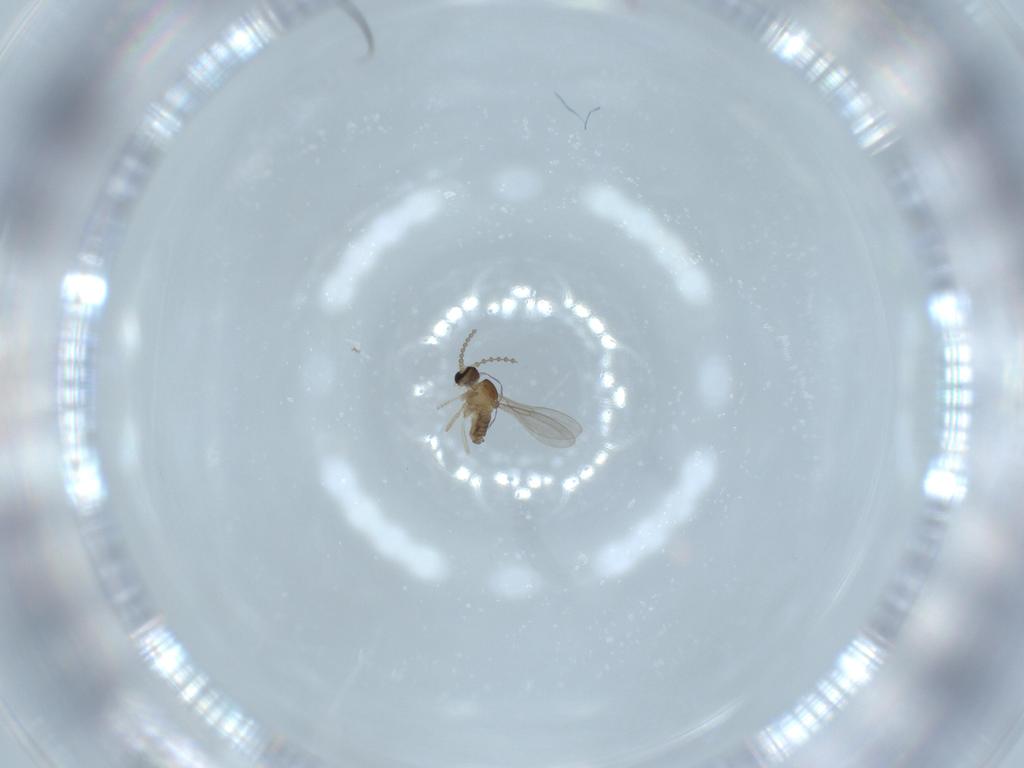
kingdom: Animalia
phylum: Arthropoda
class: Insecta
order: Diptera
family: Cecidomyiidae
